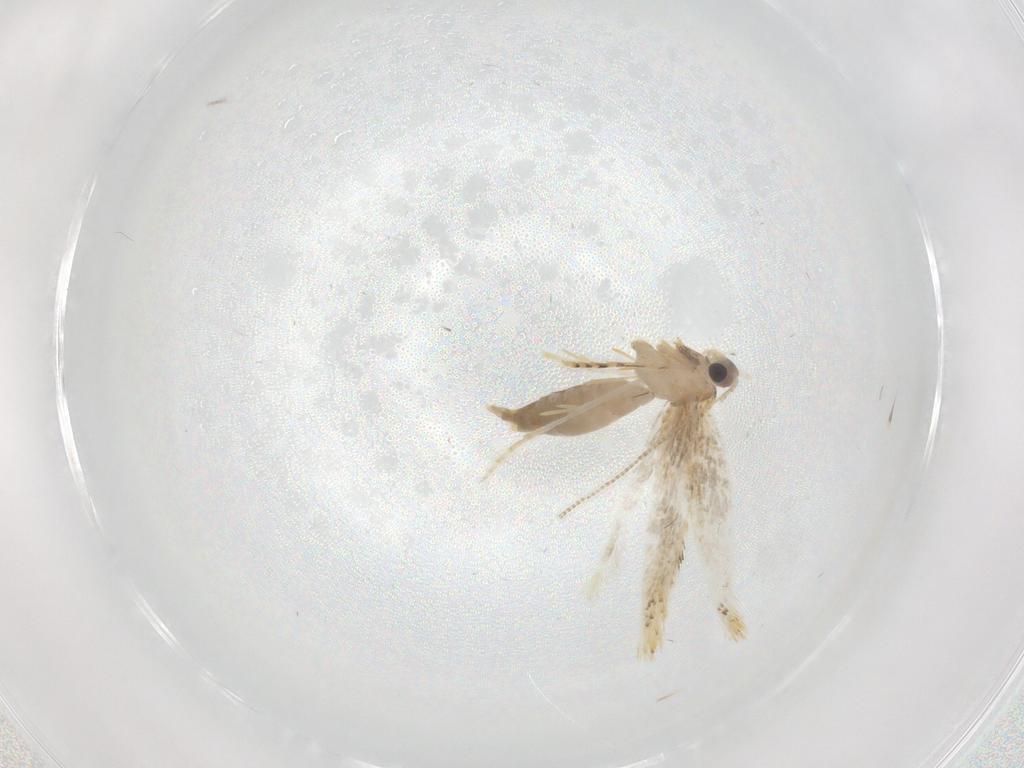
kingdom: Animalia
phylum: Arthropoda
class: Insecta
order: Lepidoptera
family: Tineidae
